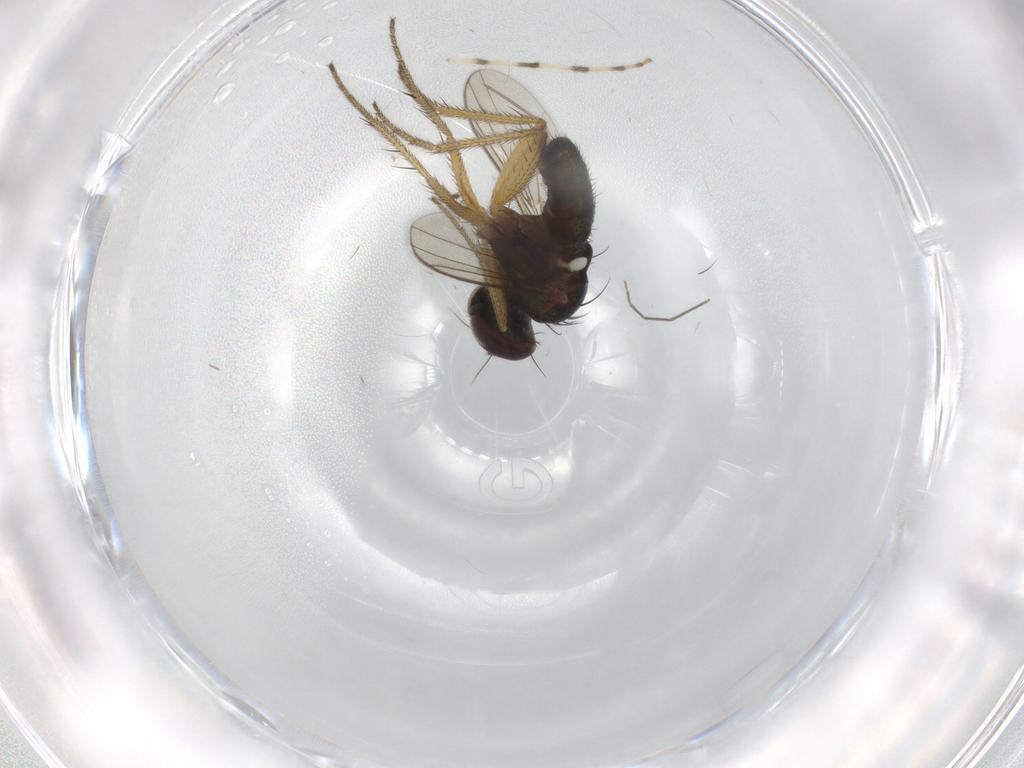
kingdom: Animalia
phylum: Arthropoda
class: Insecta
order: Diptera
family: Chironomidae
